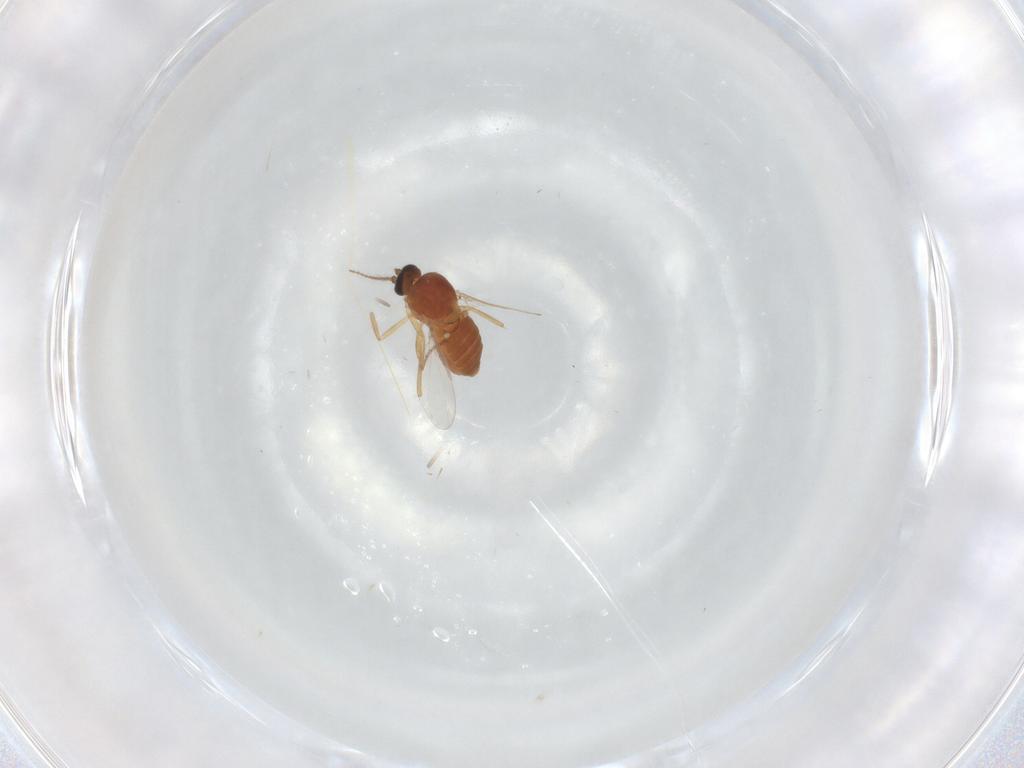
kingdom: Animalia
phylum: Arthropoda
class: Insecta
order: Diptera
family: Ceratopogonidae
